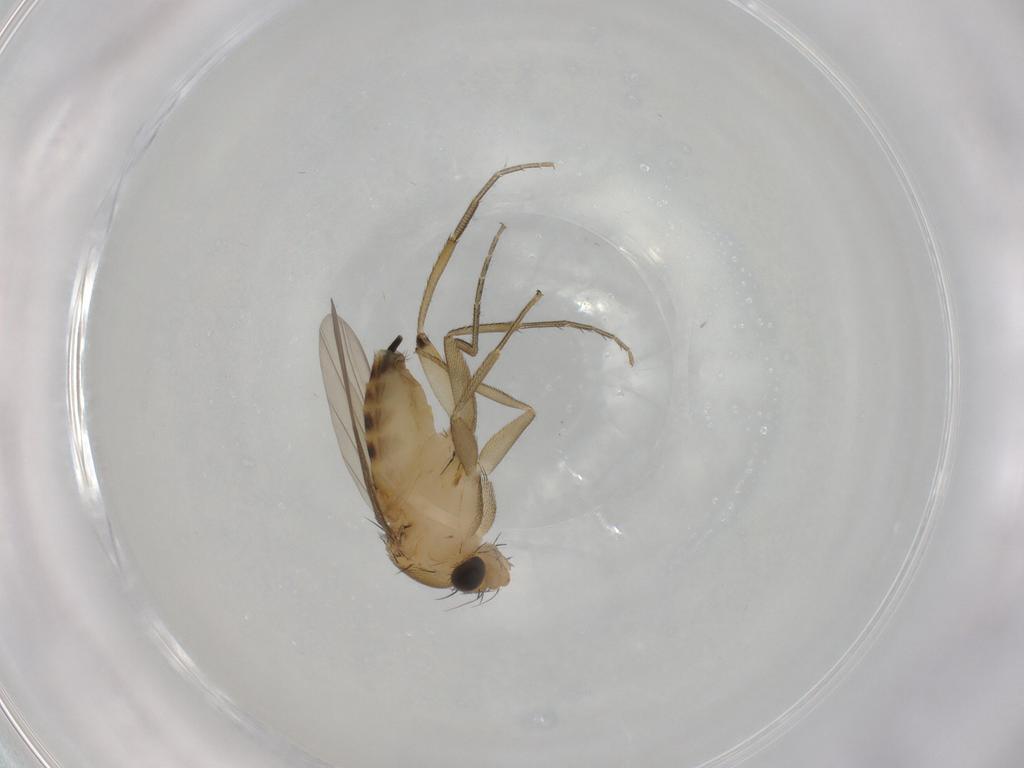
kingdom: Animalia
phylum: Arthropoda
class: Insecta
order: Diptera
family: Phoridae
